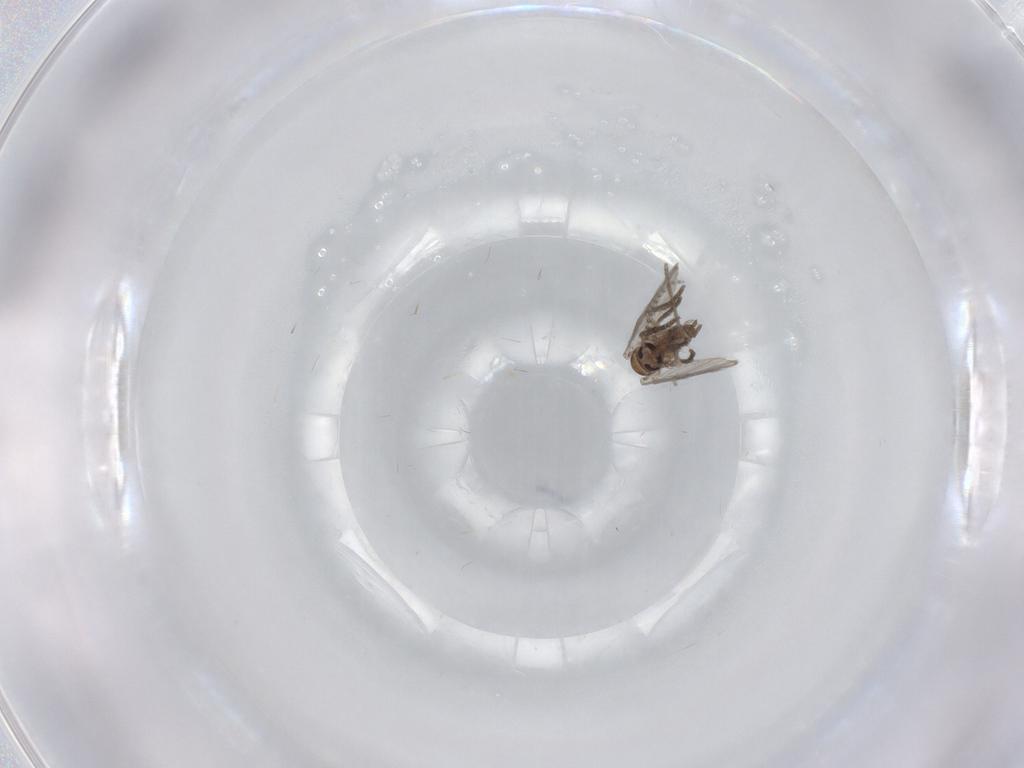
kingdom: Animalia
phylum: Arthropoda
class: Insecta
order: Diptera
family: Psychodidae
